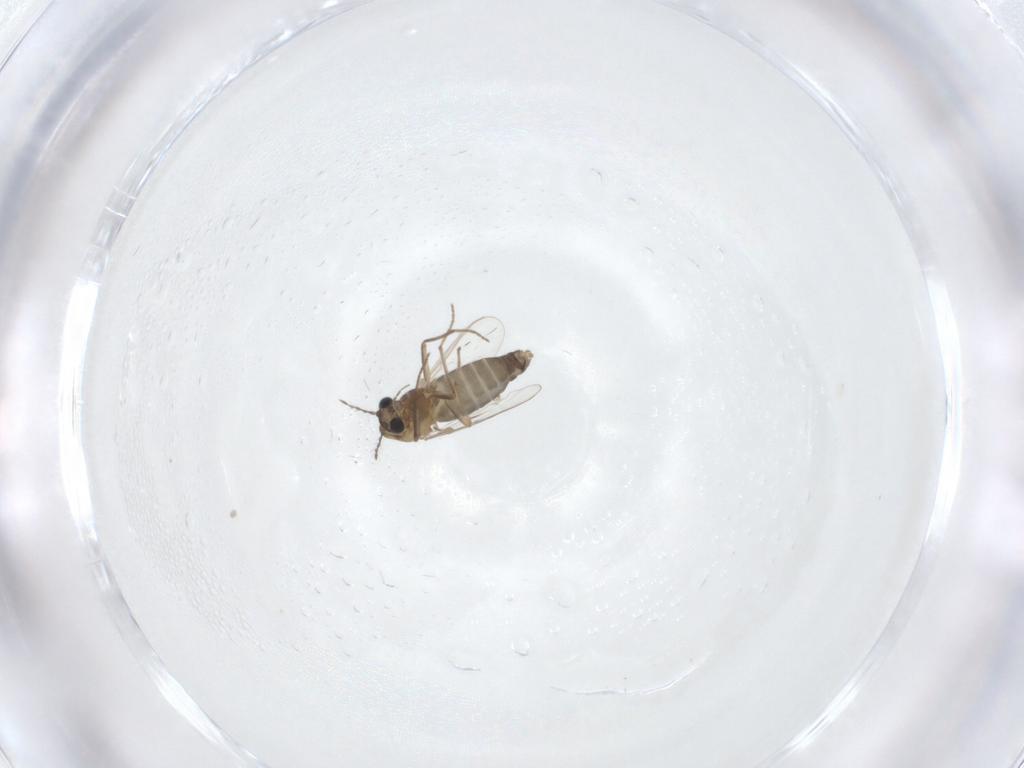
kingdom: Animalia
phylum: Arthropoda
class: Insecta
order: Diptera
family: Chironomidae
